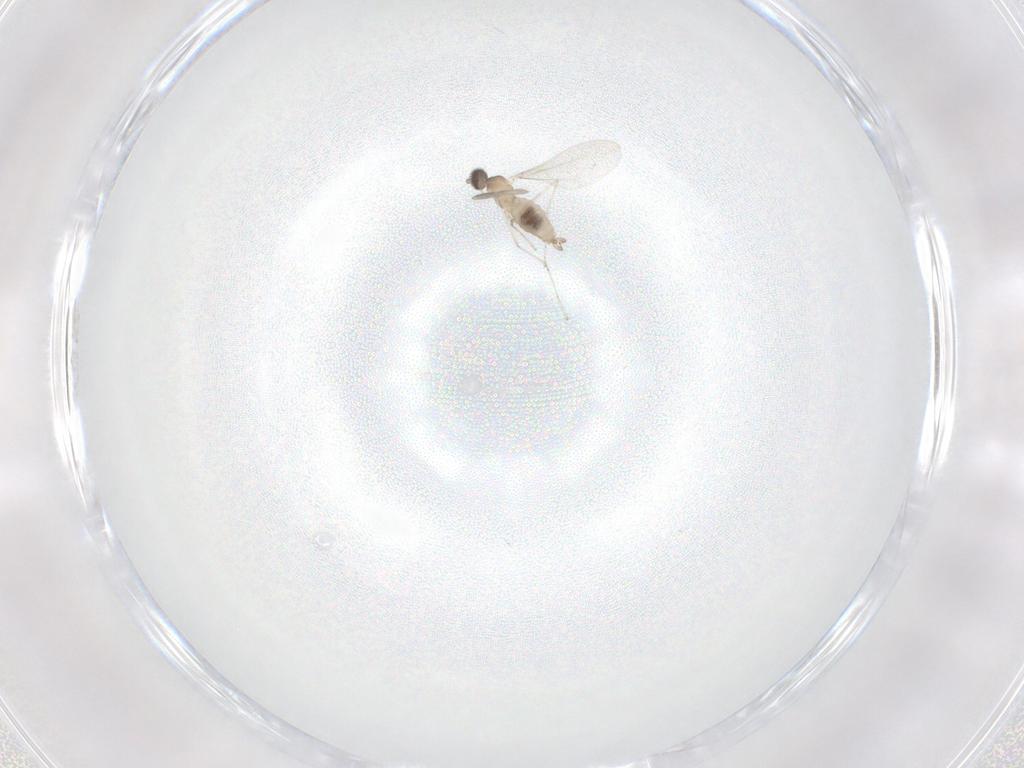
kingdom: Animalia
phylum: Arthropoda
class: Insecta
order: Diptera
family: Cecidomyiidae
